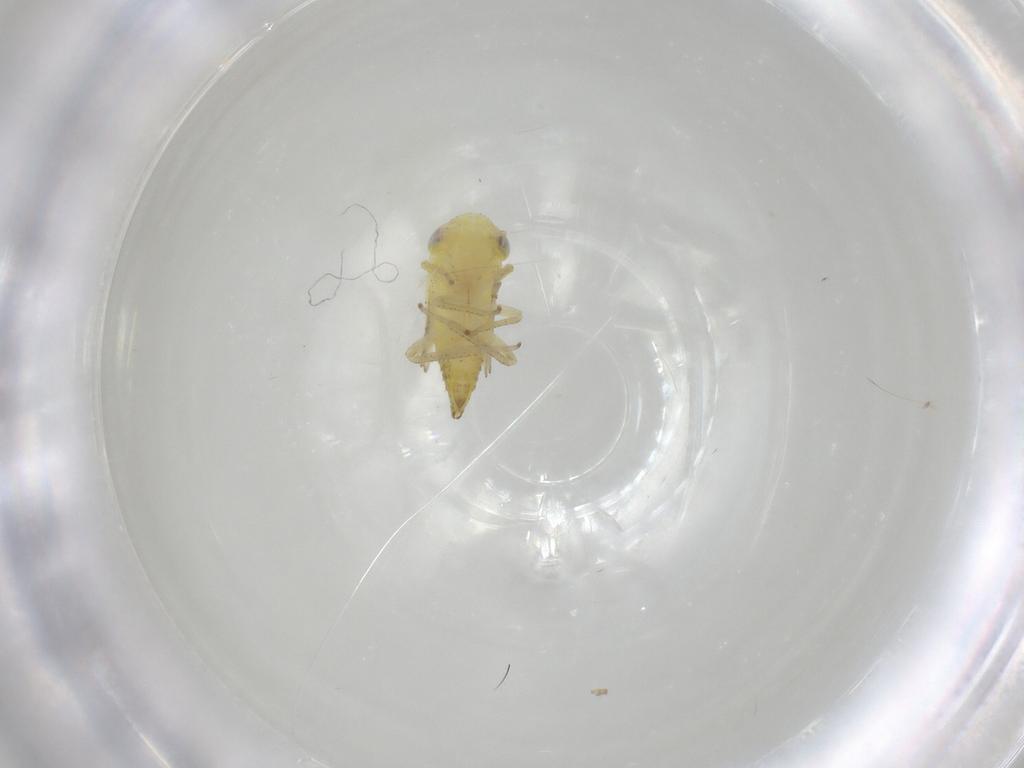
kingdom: Animalia
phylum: Arthropoda
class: Insecta
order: Hemiptera
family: Cicadellidae
